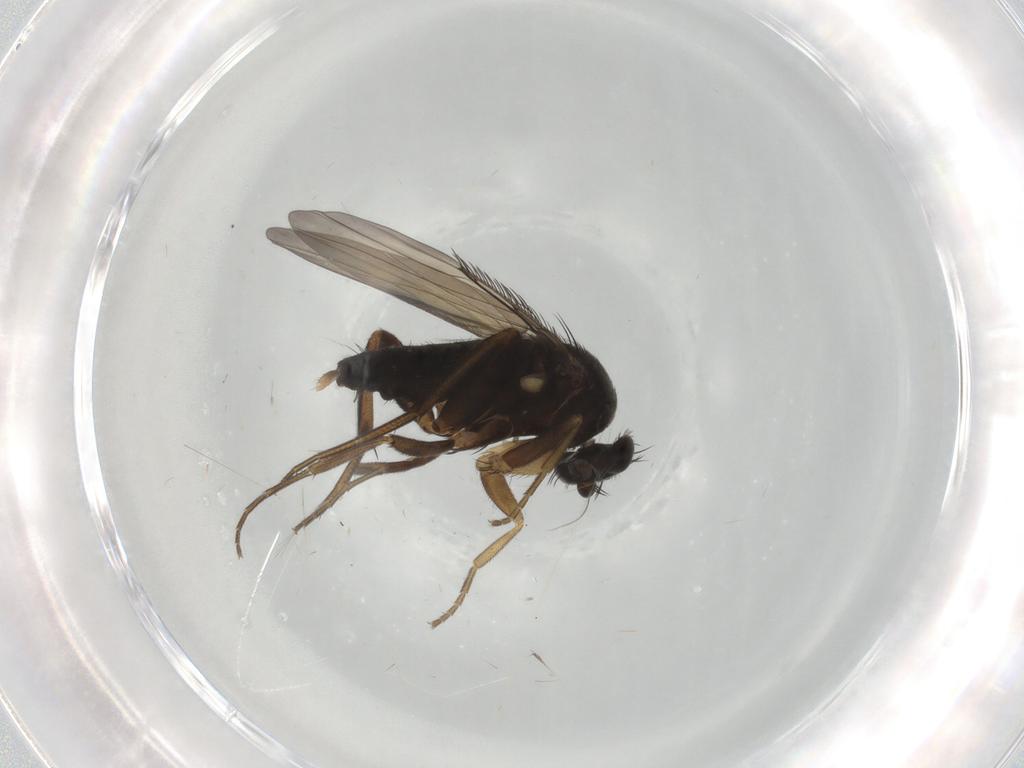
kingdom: Animalia
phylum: Arthropoda
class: Insecta
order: Diptera
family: Phoridae
